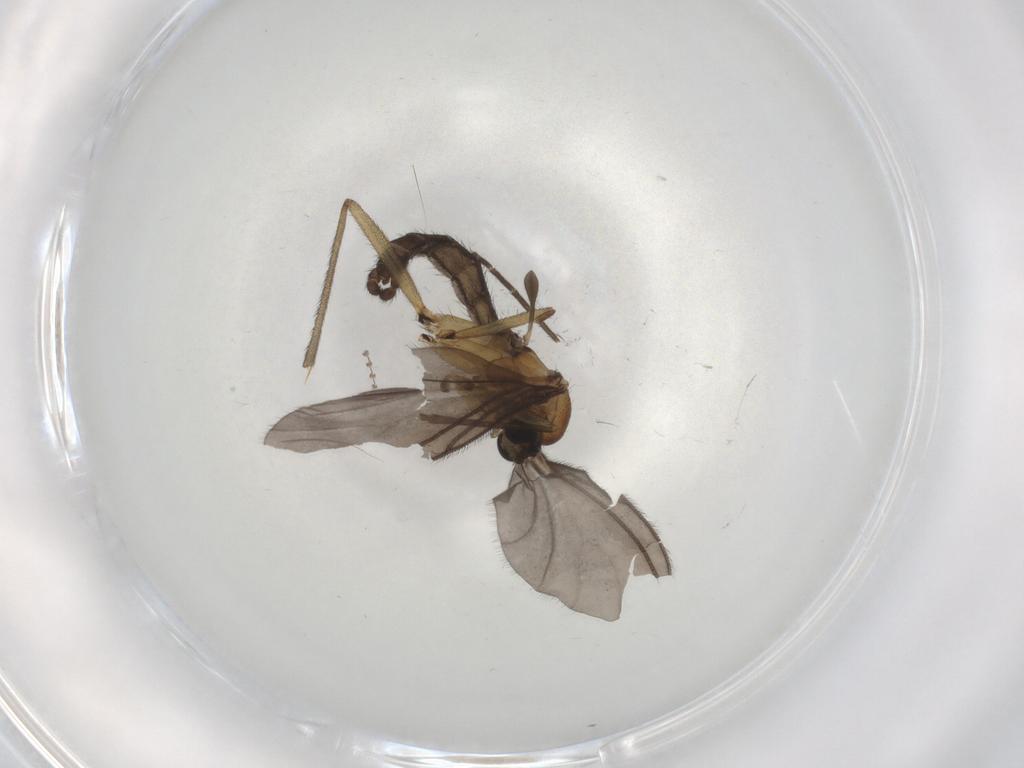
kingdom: Animalia
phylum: Arthropoda
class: Insecta
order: Diptera
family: Sciaridae
